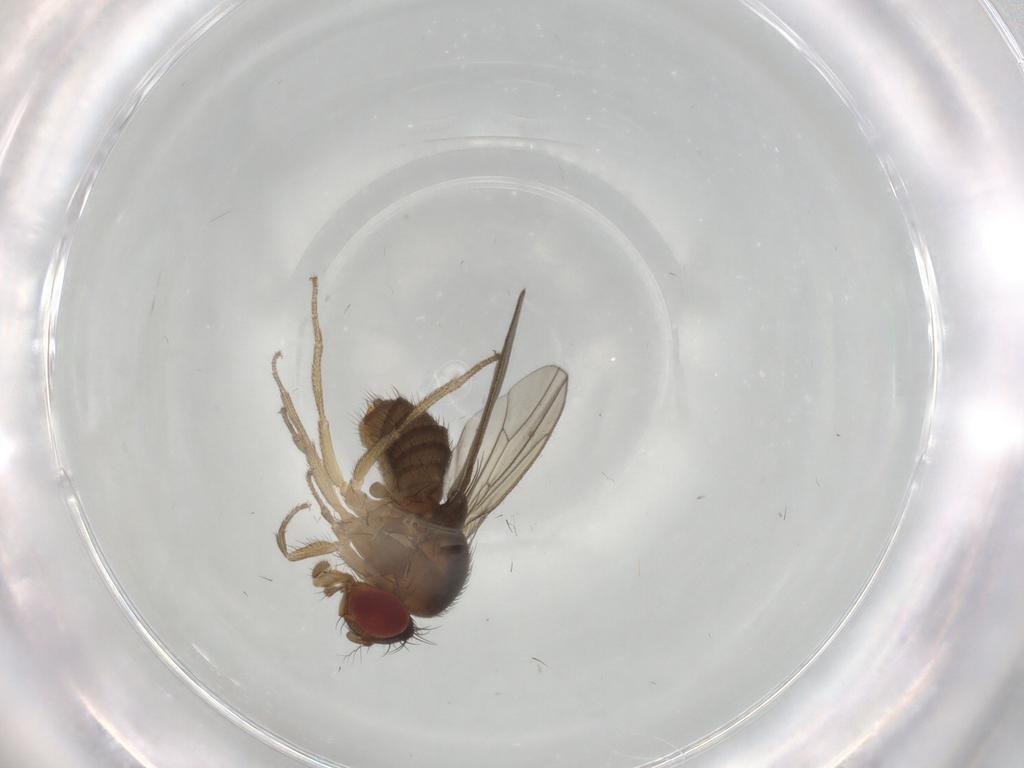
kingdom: Animalia
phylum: Arthropoda
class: Insecta
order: Diptera
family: Drosophilidae
